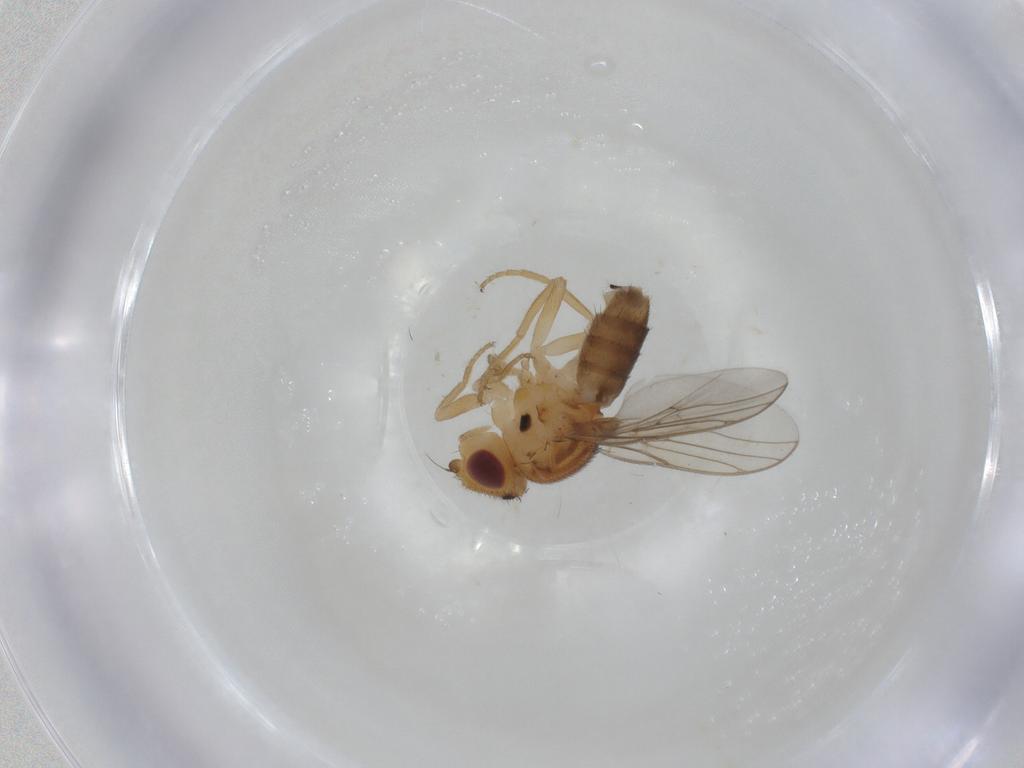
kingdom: Animalia
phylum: Arthropoda
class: Insecta
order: Diptera
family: Chloropidae
